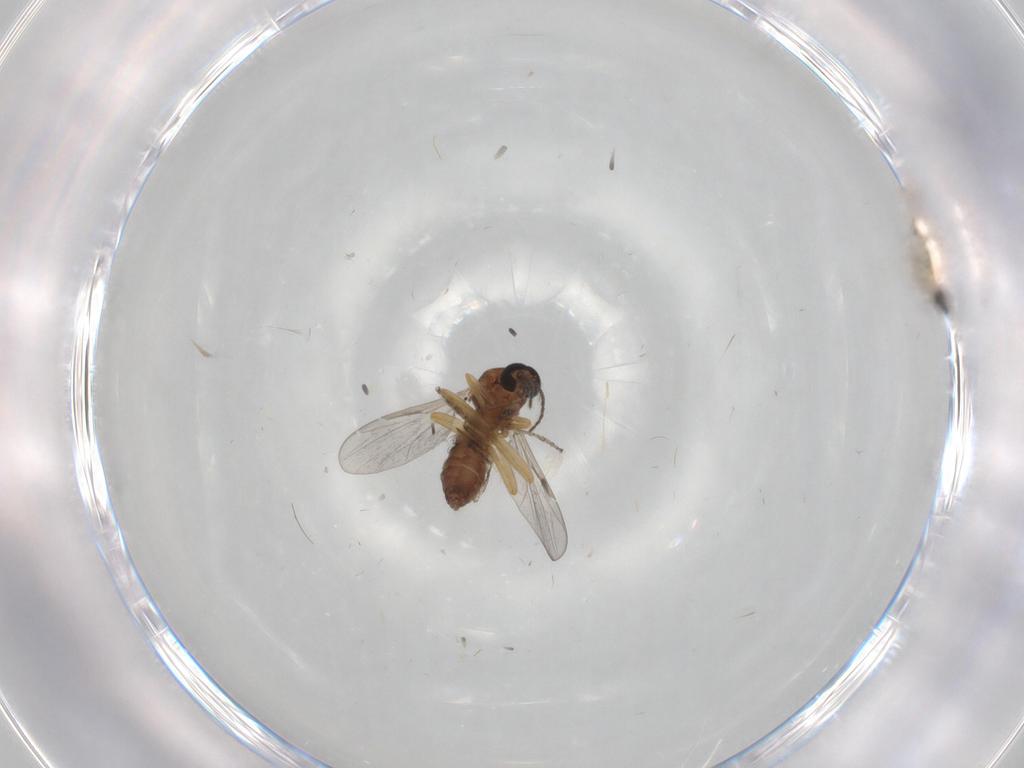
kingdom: Animalia
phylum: Arthropoda
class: Insecta
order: Diptera
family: Ceratopogonidae
